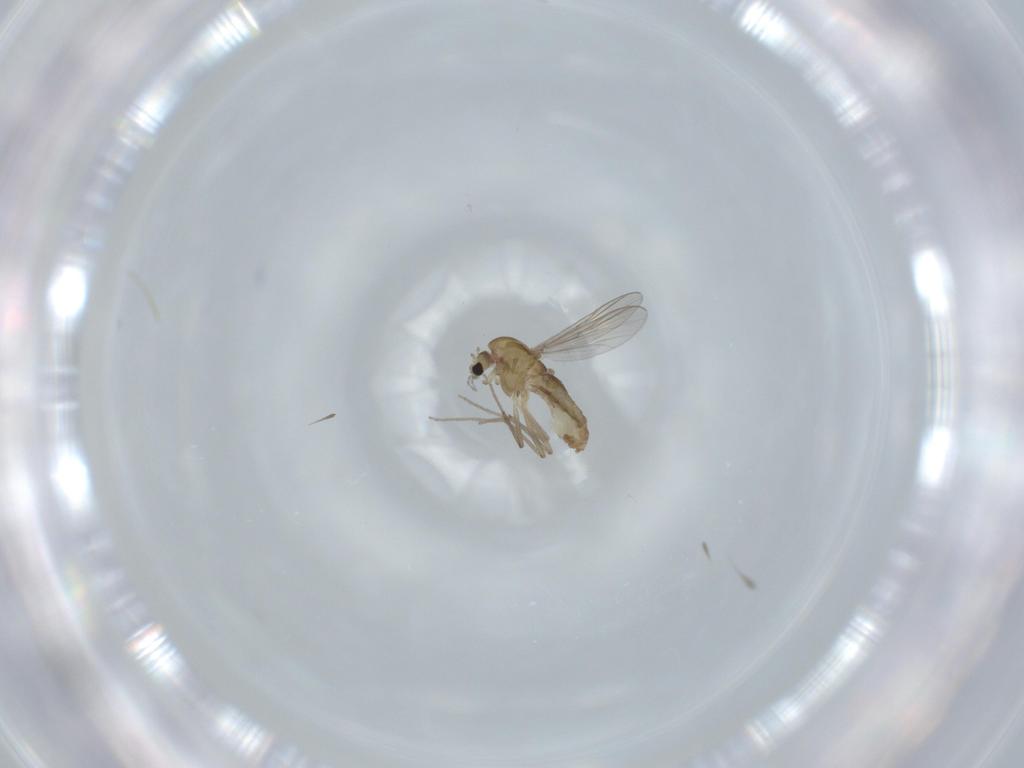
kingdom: Animalia
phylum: Arthropoda
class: Insecta
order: Diptera
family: Chironomidae
